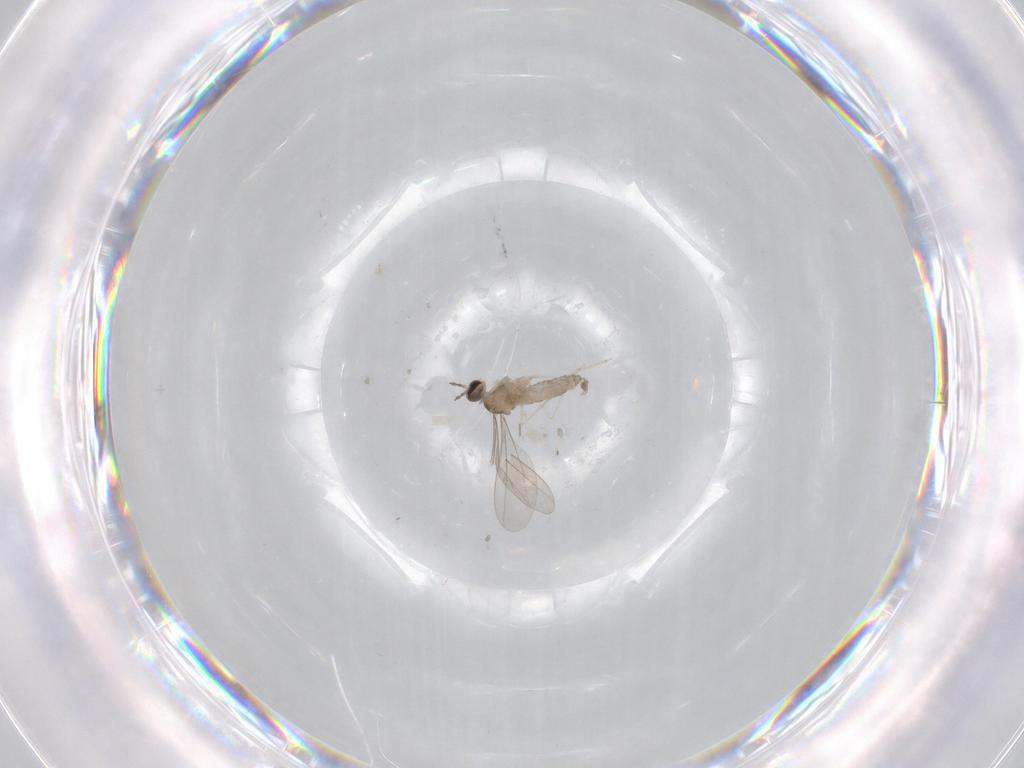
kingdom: Animalia
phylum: Arthropoda
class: Insecta
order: Diptera
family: Cecidomyiidae
